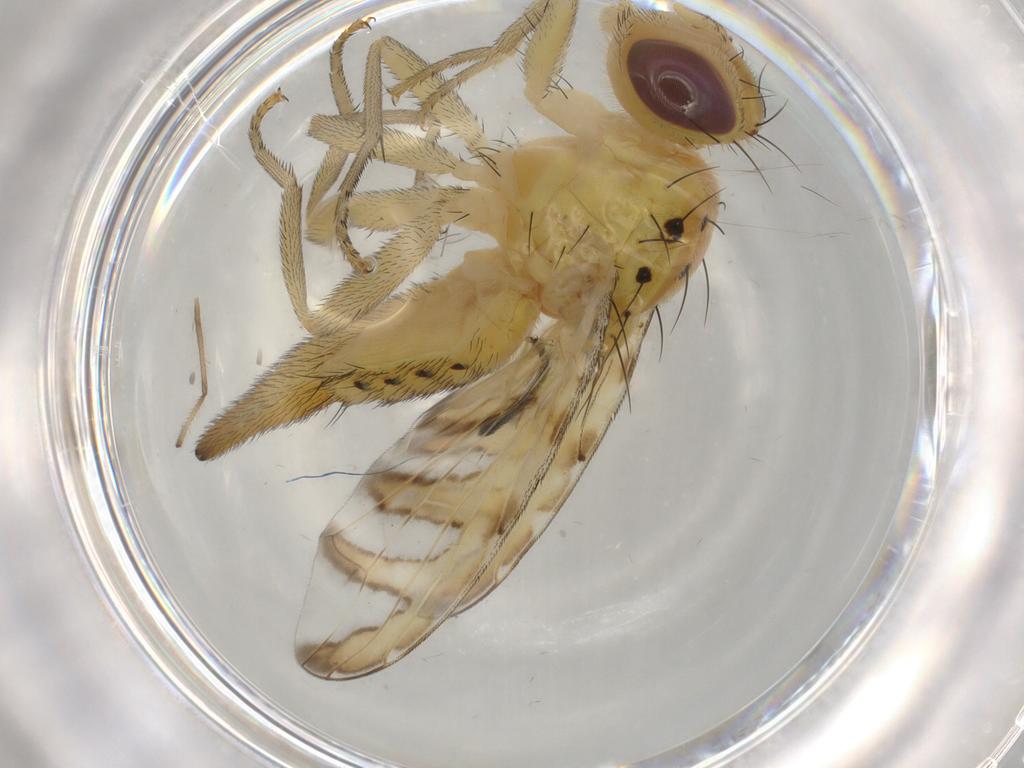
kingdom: Animalia
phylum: Arthropoda
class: Insecta
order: Diptera
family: Tephritidae
